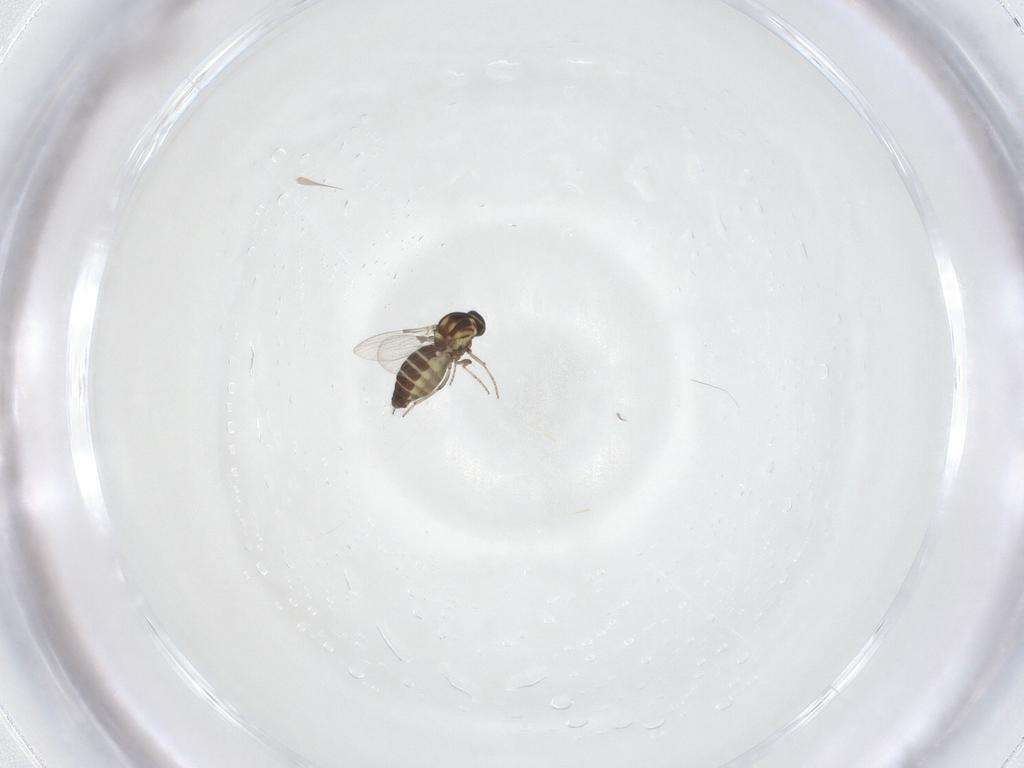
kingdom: Animalia
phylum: Arthropoda
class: Insecta
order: Diptera
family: Ceratopogonidae
